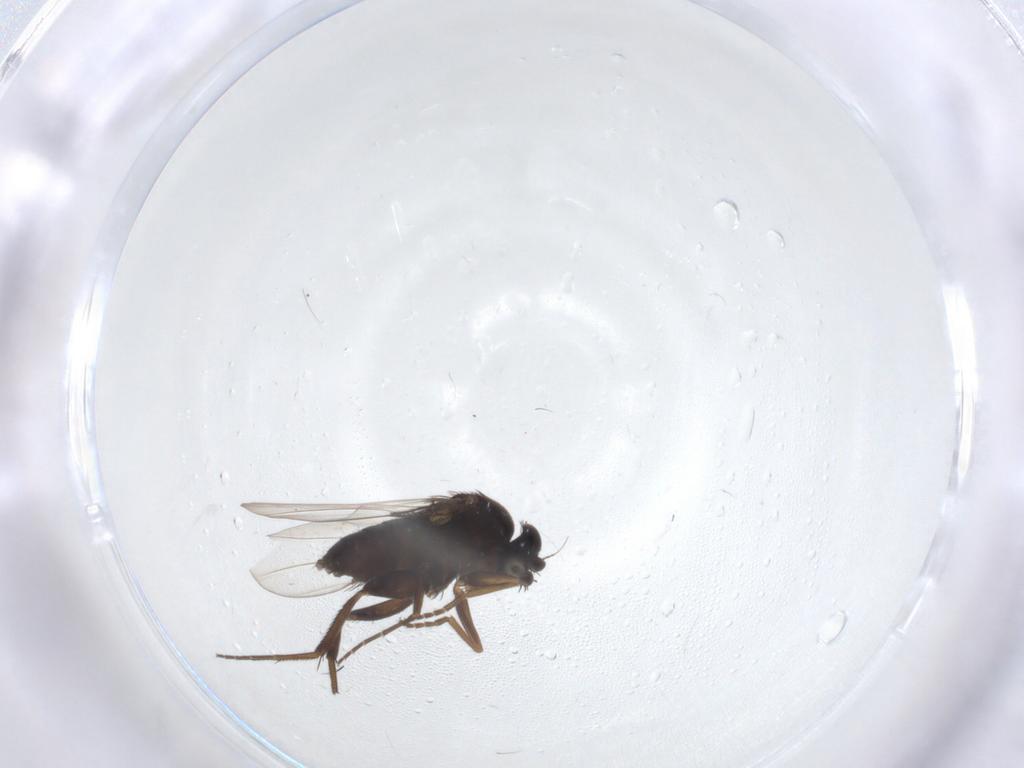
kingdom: Animalia
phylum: Arthropoda
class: Insecta
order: Diptera
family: Phoridae
